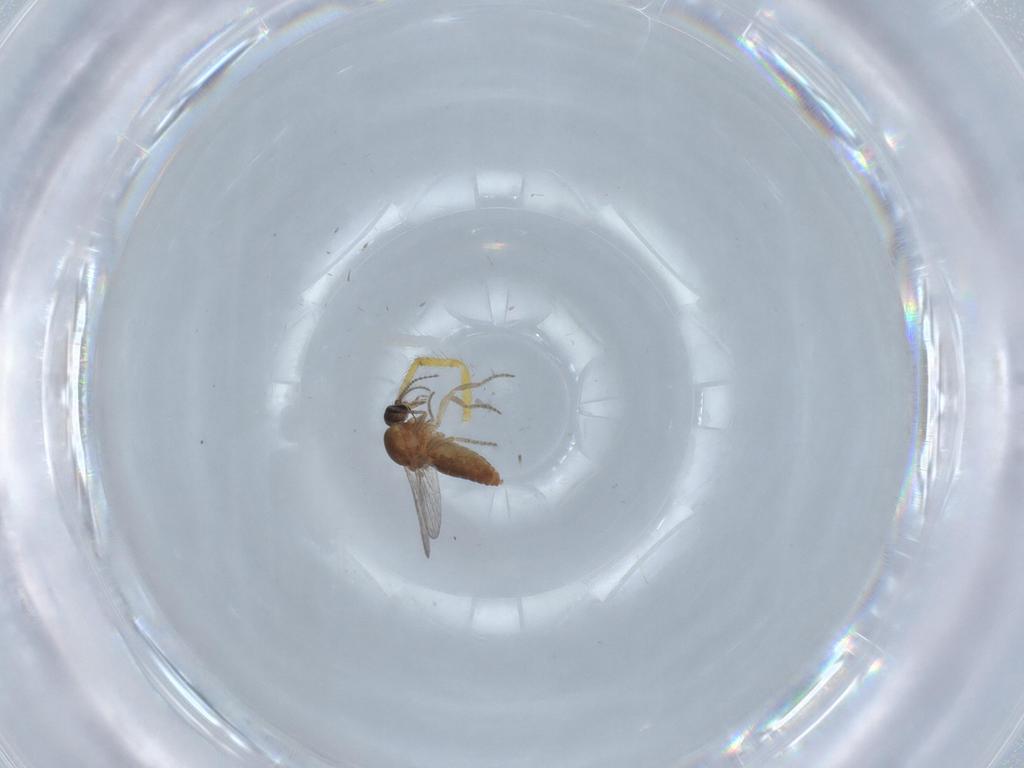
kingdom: Animalia
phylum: Arthropoda
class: Insecta
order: Diptera
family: Ceratopogonidae
